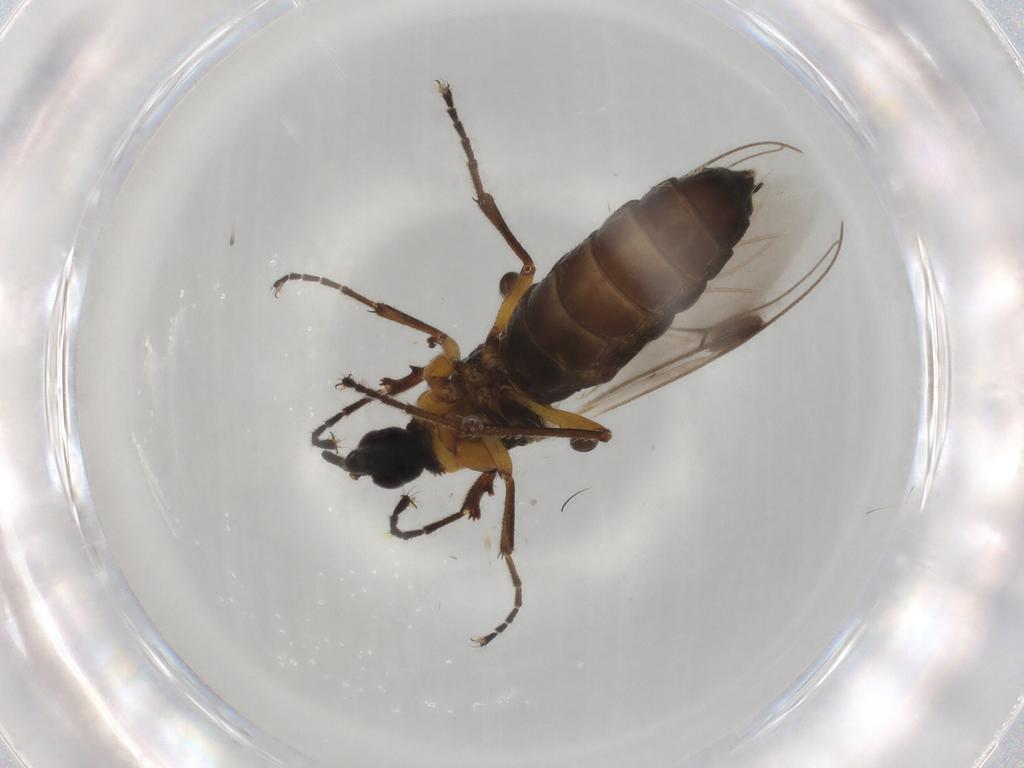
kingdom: Animalia
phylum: Arthropoda
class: Insecta
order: Diptera
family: Bibionidae
